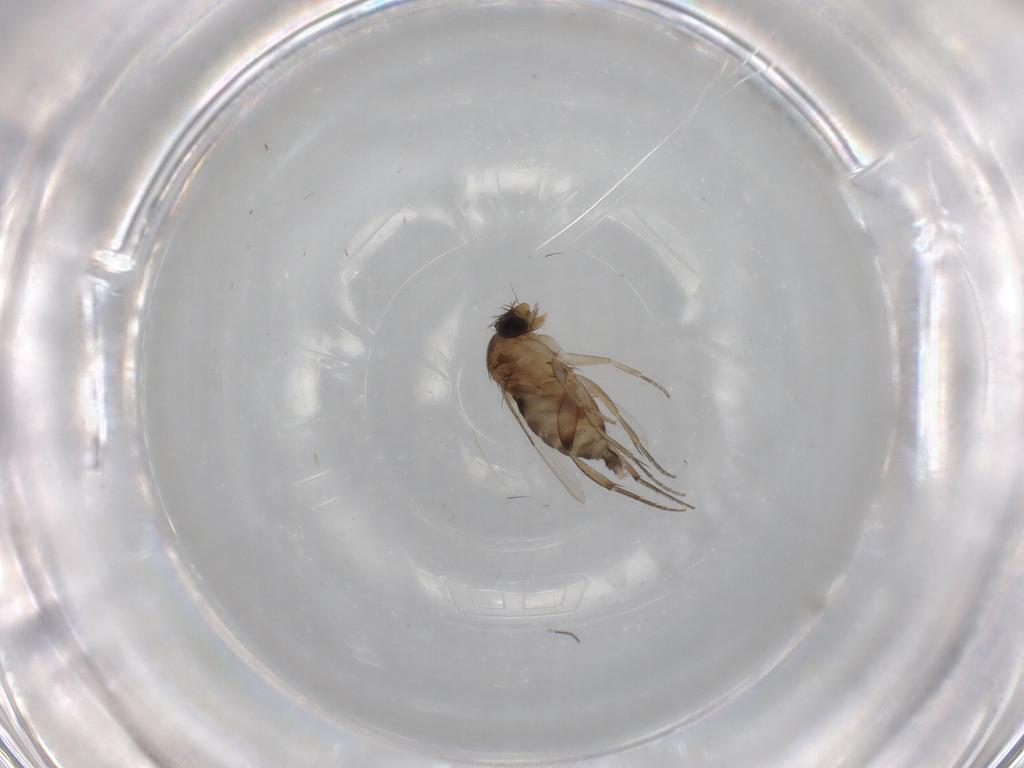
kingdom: Animalia
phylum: Arthropoda
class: Insecta
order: Diptera
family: Phoridae
